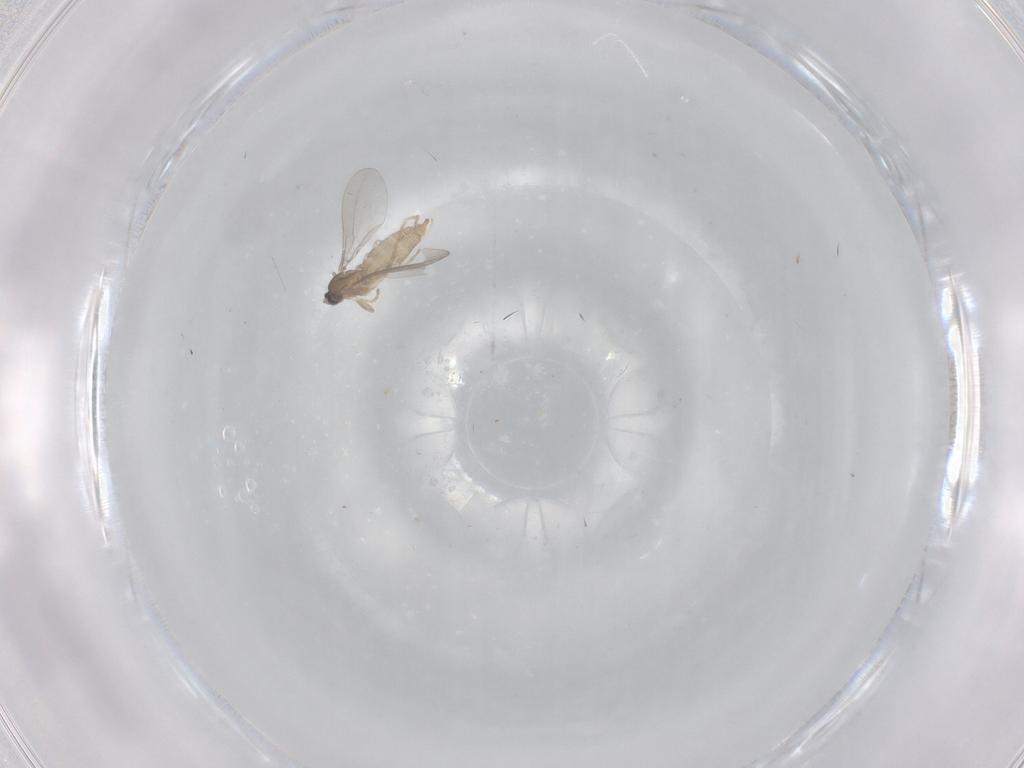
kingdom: Animalia
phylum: Arthropoda
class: Insecta
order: Diptera
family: Cecidomyiidae
